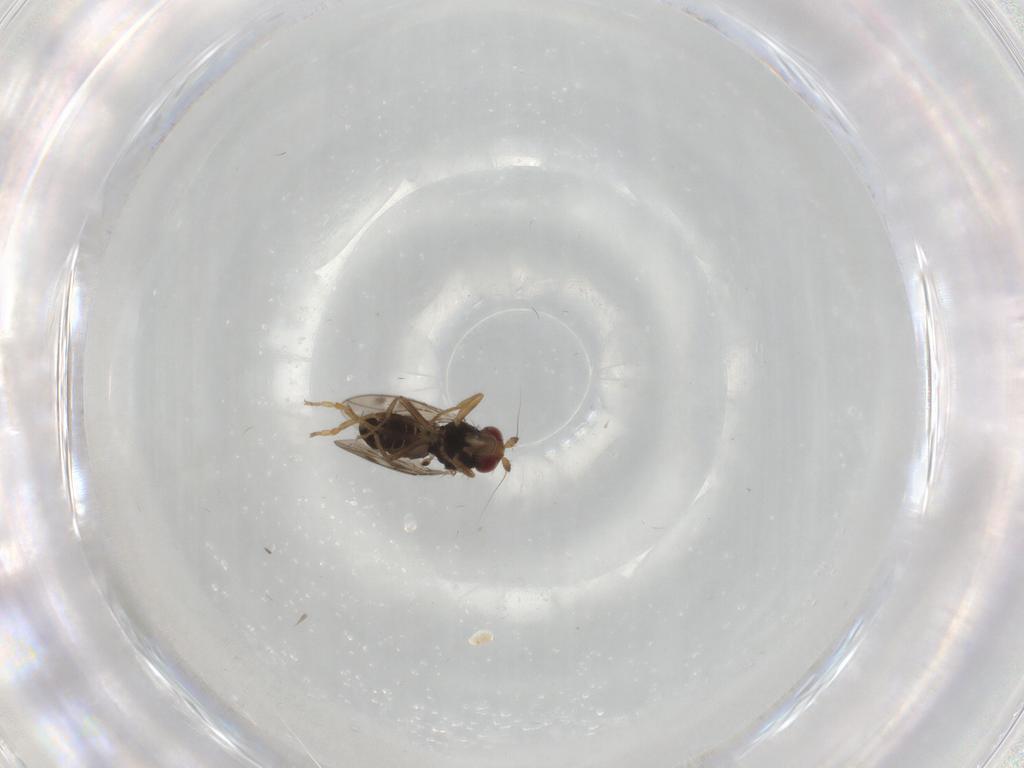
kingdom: Animalia
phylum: Arthropoda
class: Insecta
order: Diptera
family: Sphaeroceridae
